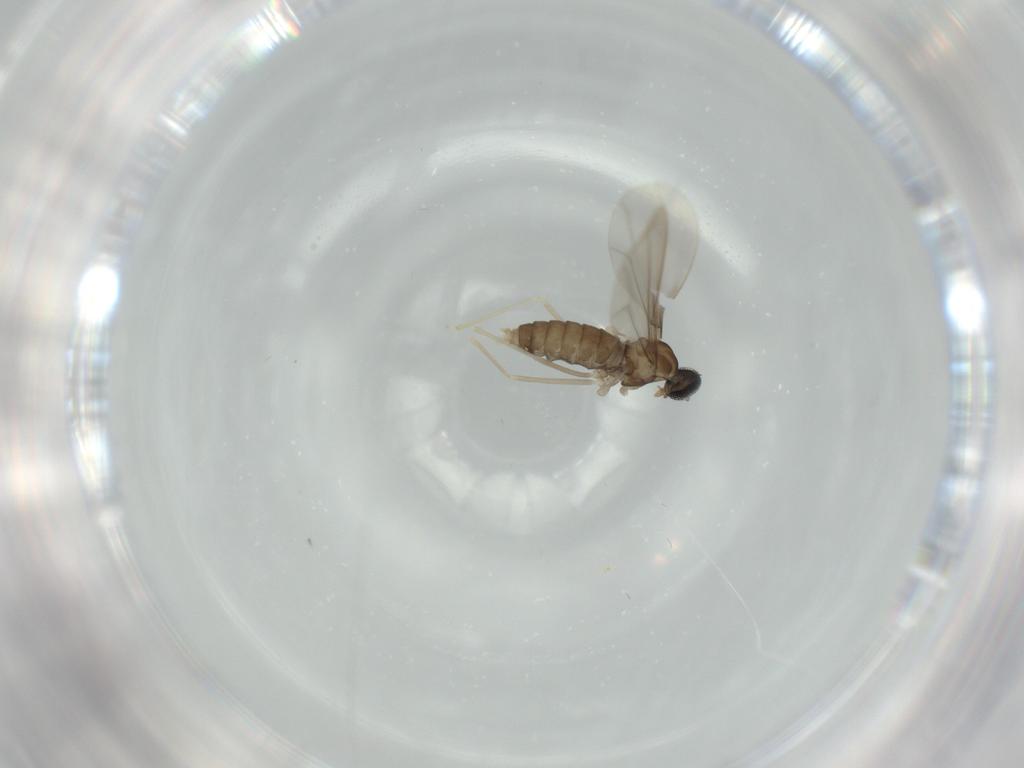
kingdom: Animalia
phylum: Arthropoda
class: Insecta
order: Diptera
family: Cecidomyiidae
